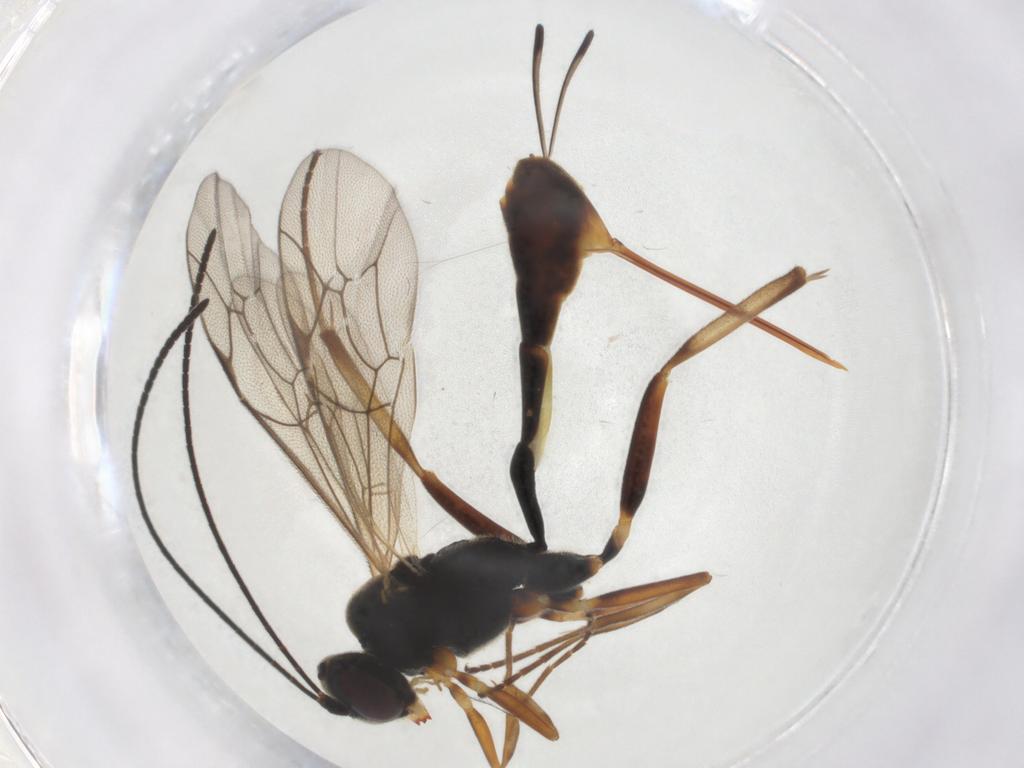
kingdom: Animalia
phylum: Arthropoda
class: Insecta
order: Hymenoptera
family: Ichneumonidae
